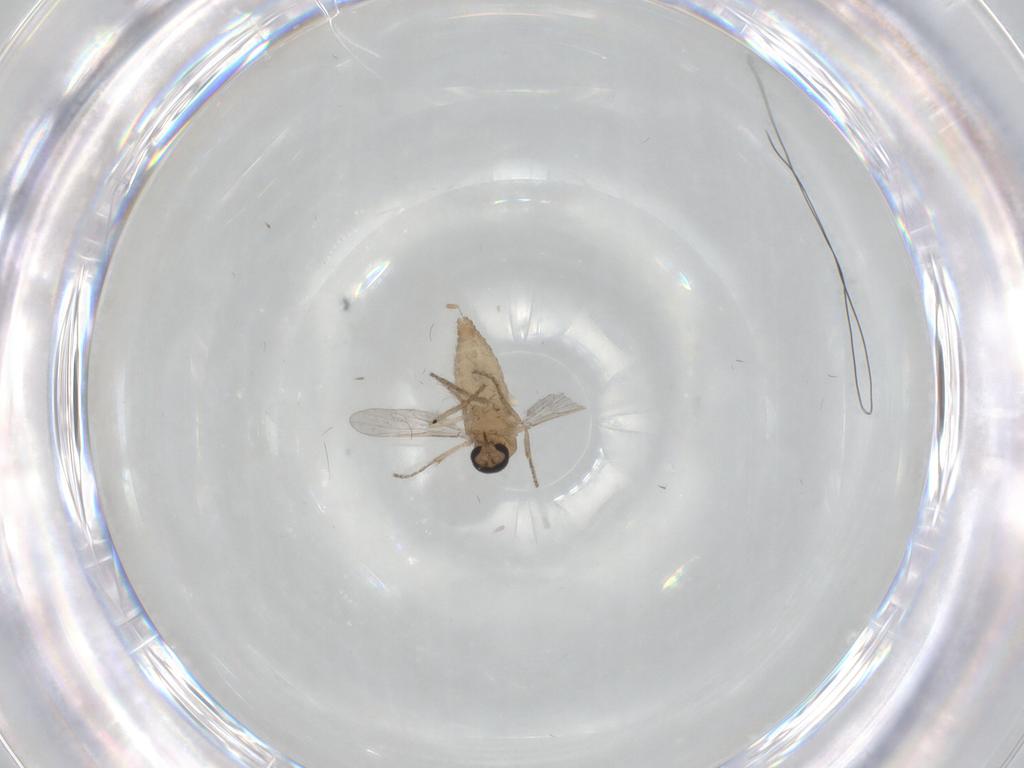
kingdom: Animalia
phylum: Arthropoda
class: Insecta
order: Diptera
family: Ceratopogonidae
